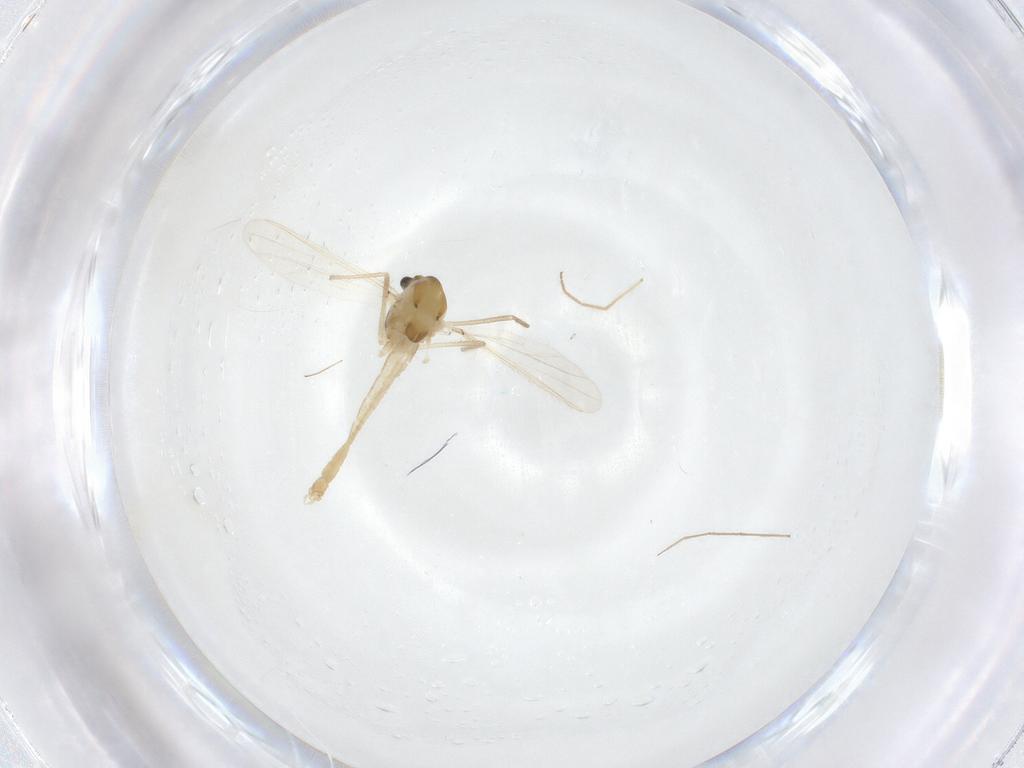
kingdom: Animalia
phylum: Arthropoda
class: Insecta
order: Diptera
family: Chironomidae
